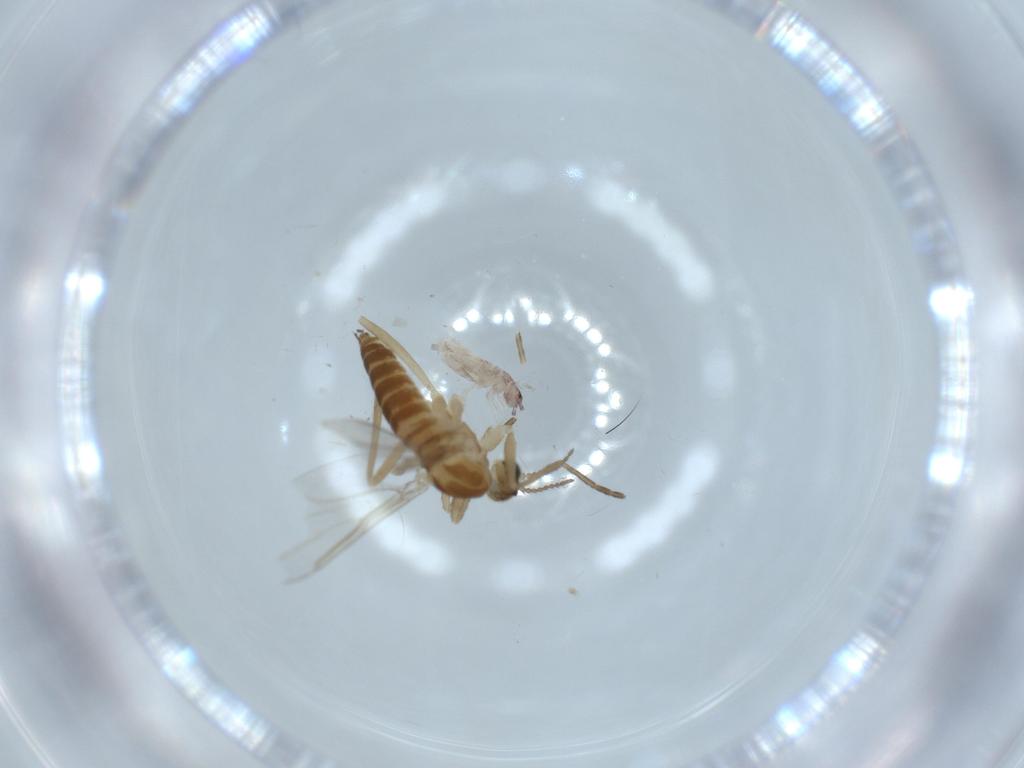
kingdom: Animalia
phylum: Arthropoda
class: Insecta
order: Diptera
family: Cecidomyiidae
